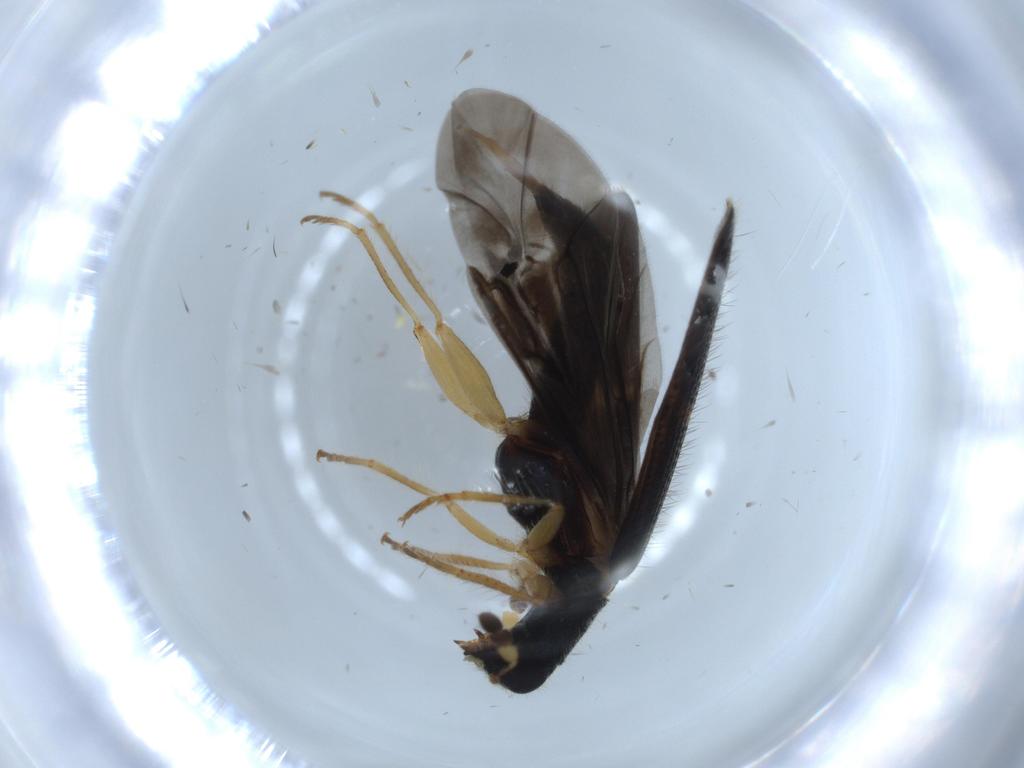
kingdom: Animalia
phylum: Arthropoda
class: Insecta
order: Coleoptera
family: Cleridae
